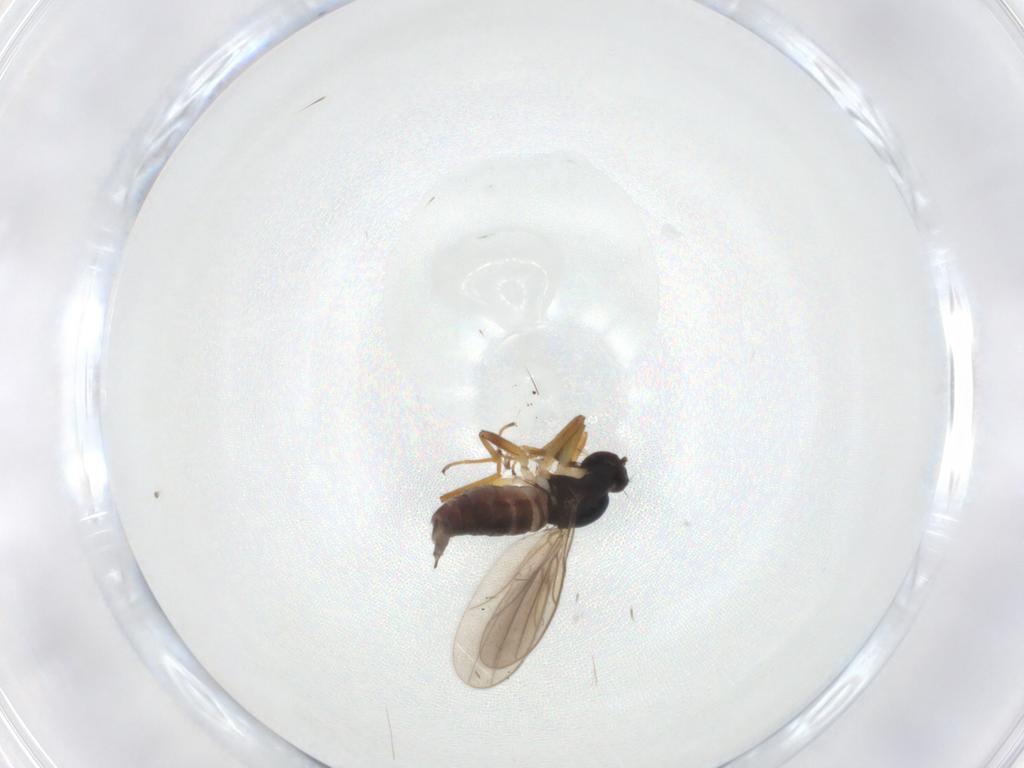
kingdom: Animalia
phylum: Arthropoda
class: Insecta
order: Diptera
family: Hybotidae
